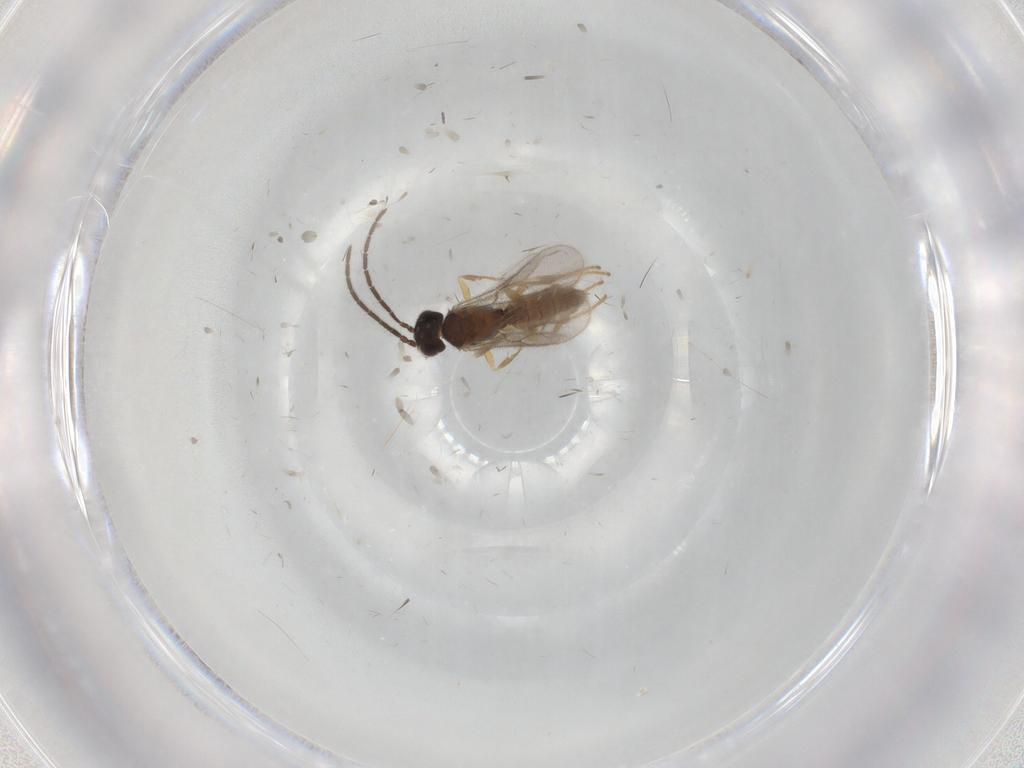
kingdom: Animalia
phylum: Arthropoda
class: Insecta
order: Hymenoptera
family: Dryinidae
